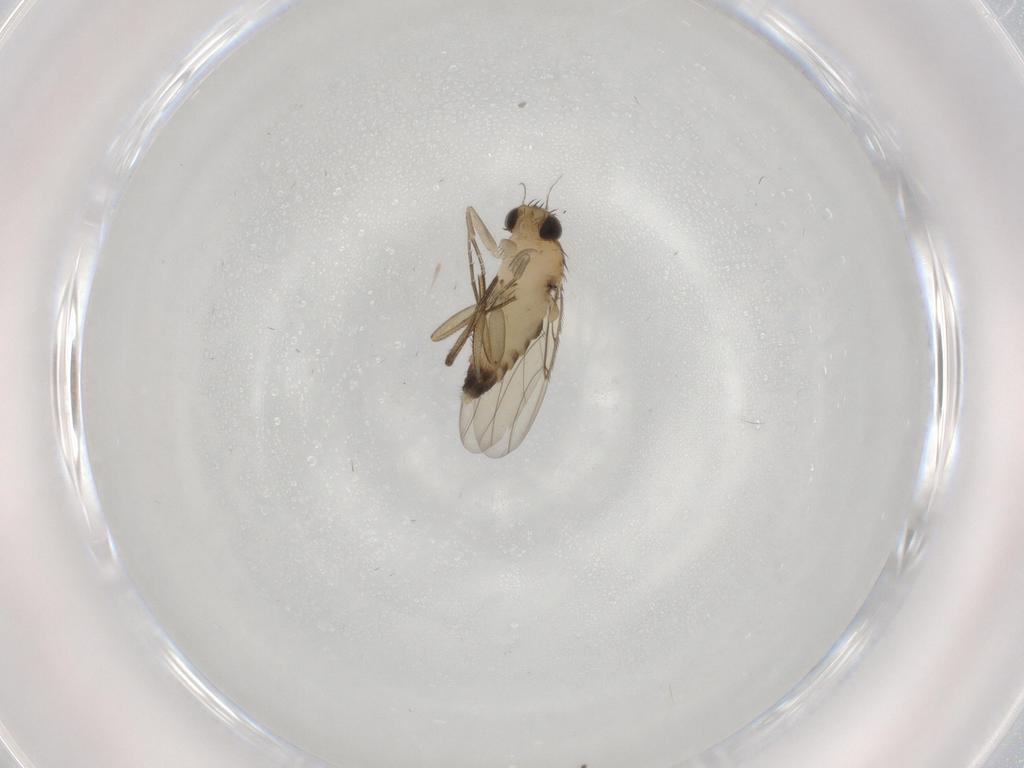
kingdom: Animalia
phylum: Arthropoda
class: Insecta
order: Diptera
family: Phoridae
